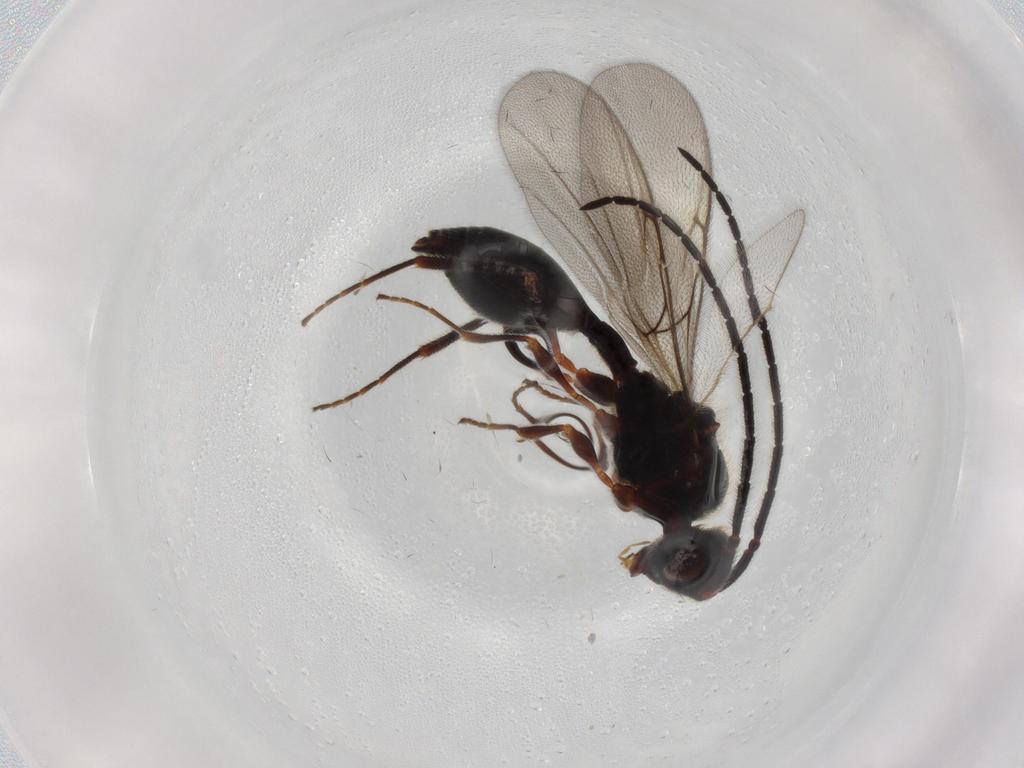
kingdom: Animalia
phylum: Arthropoda
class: Insecta
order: Hymenoptera
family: Diapriidae
